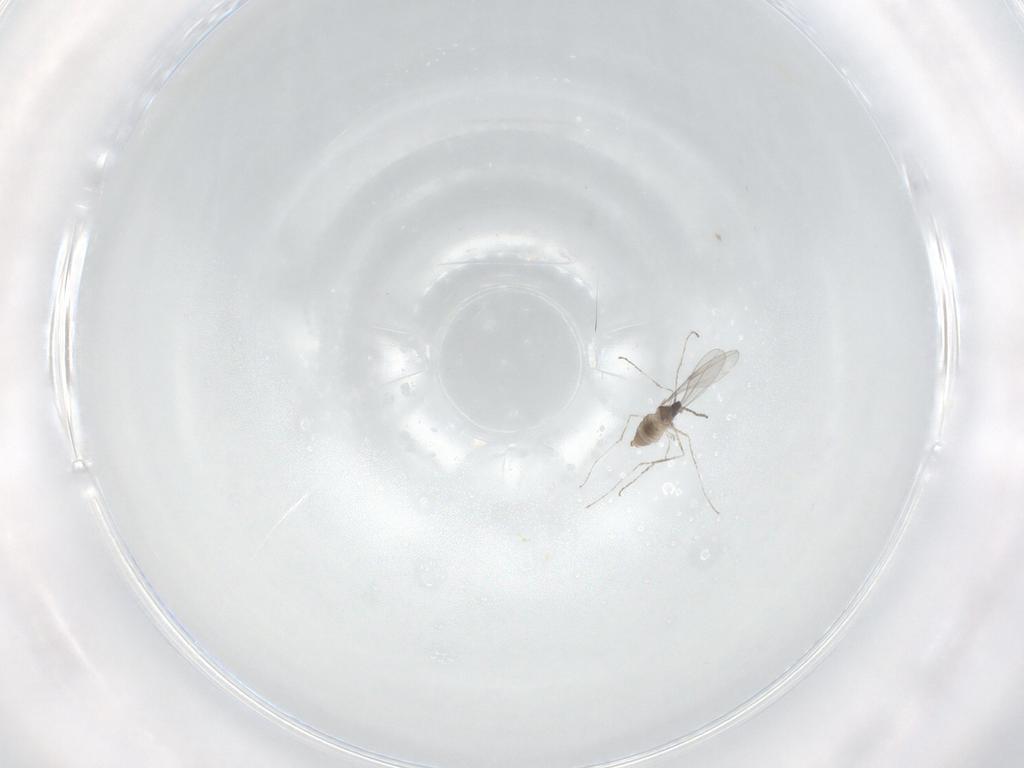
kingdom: Animalia
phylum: Arthropoda
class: Insecta
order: Diptera
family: Cecidomyiidae
